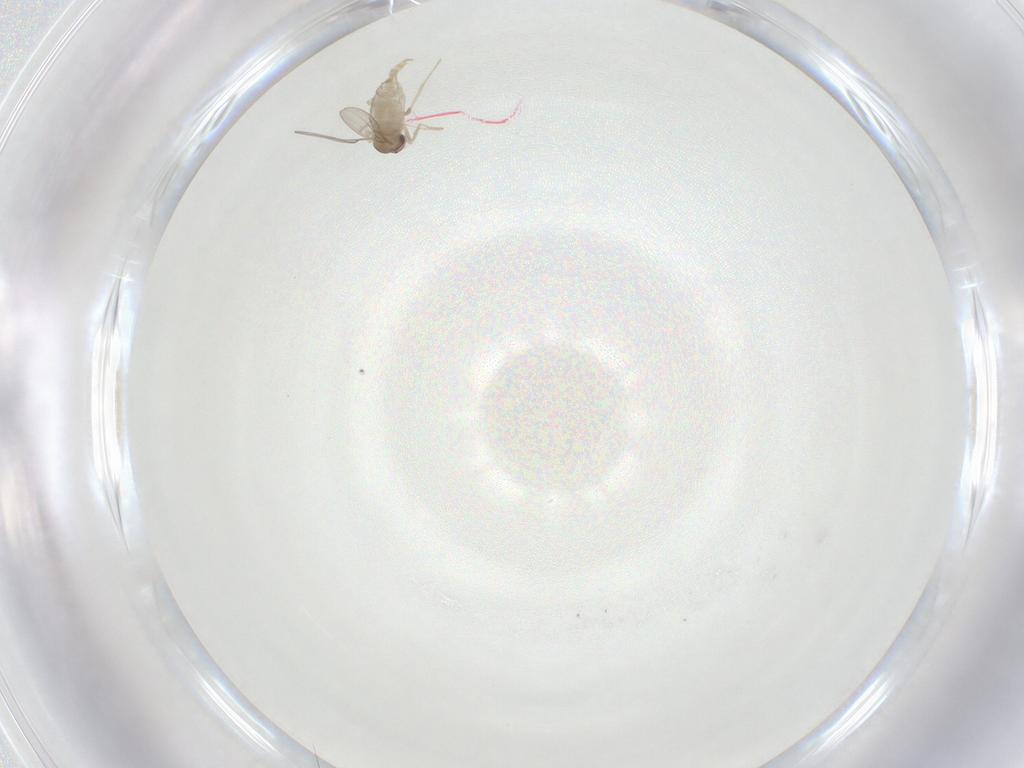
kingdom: Animalia
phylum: Arthropoda
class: Insecta
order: Diptera
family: Cecidomyiidae
